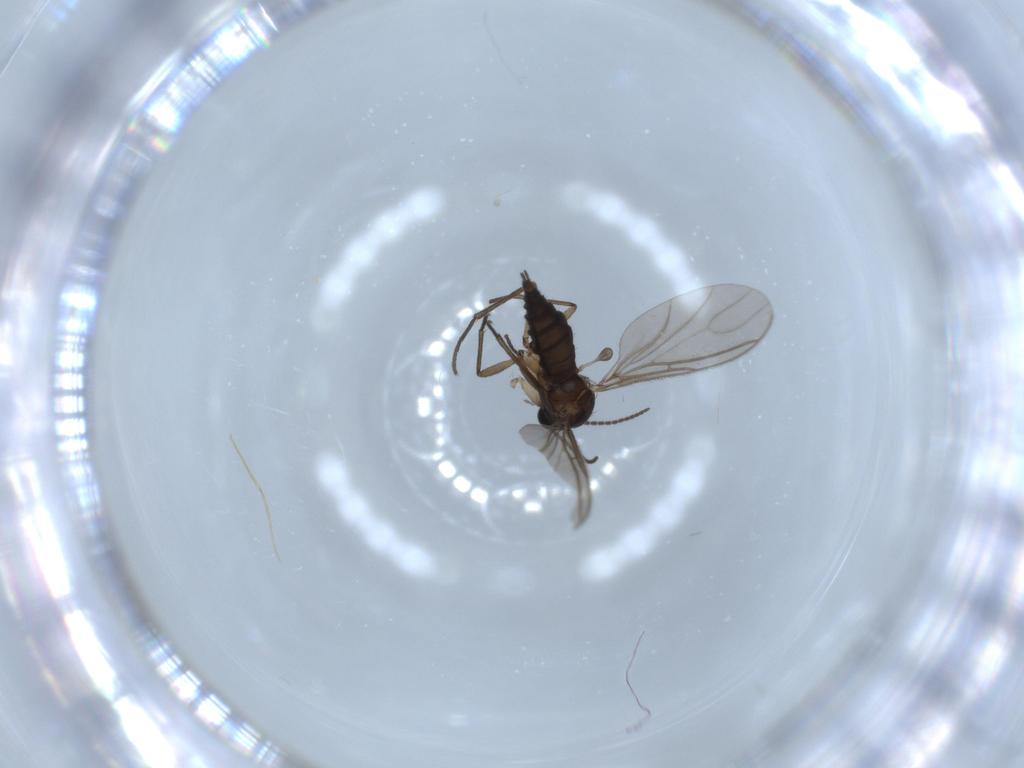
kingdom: Animalia
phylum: Arthropoda
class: Insecta
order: Diptera
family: Sciaridae
